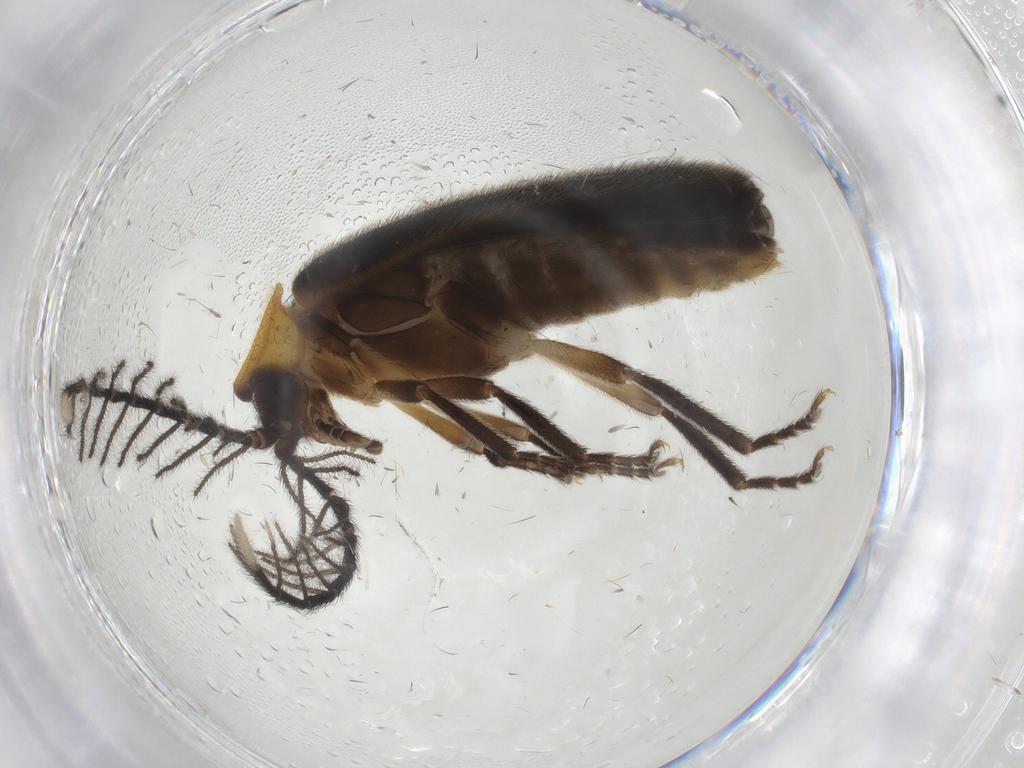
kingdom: Animalia
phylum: Arthropoda
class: Insecta
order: Coleoptera
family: Lampyridae
